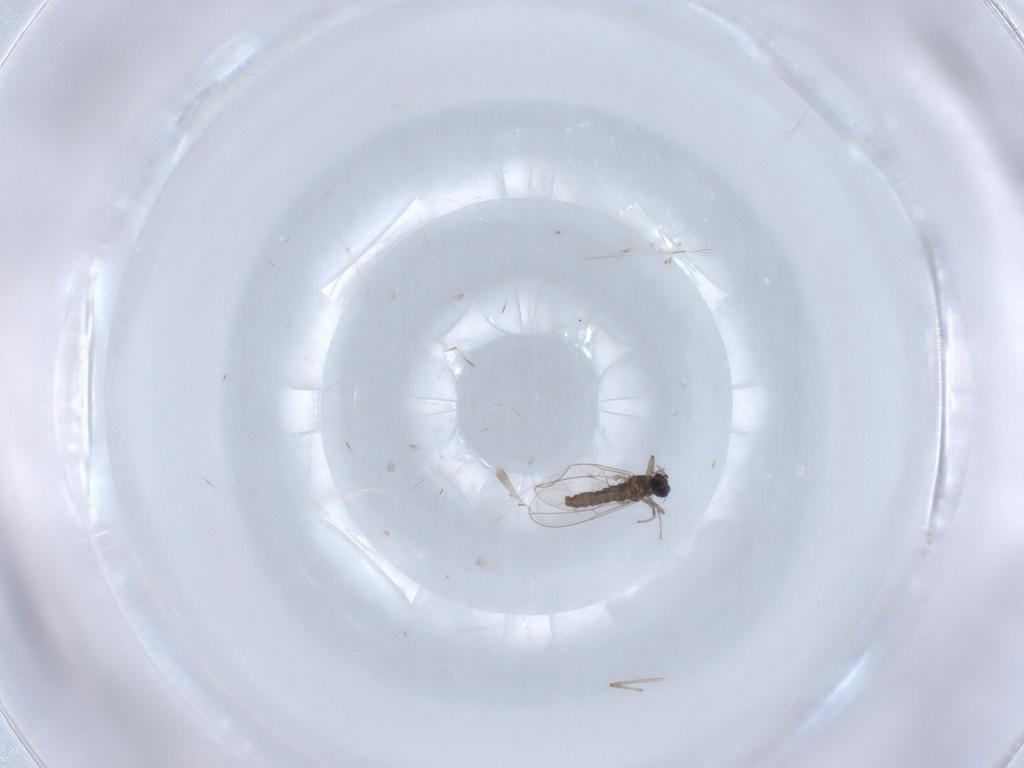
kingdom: Animalia
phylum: Arthropoda
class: Insecta
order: Diptera
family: Cecidomyiidae
